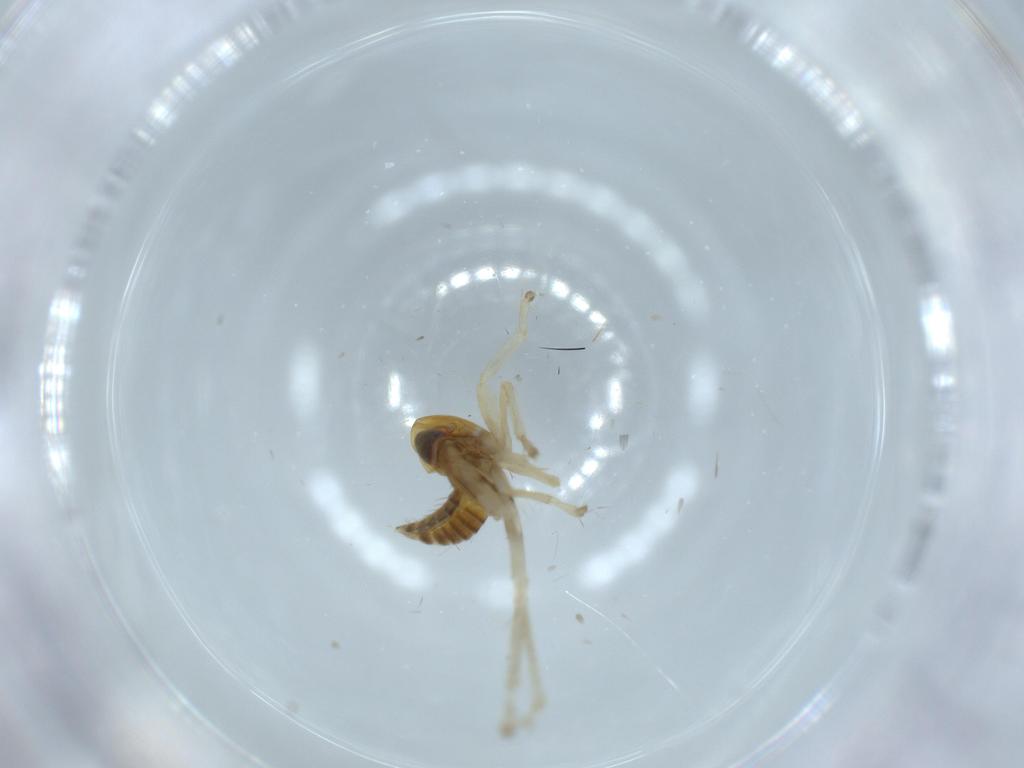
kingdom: Animalia
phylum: Arthropoda
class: Insecta
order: Hemiptera
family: Cicadellidae
